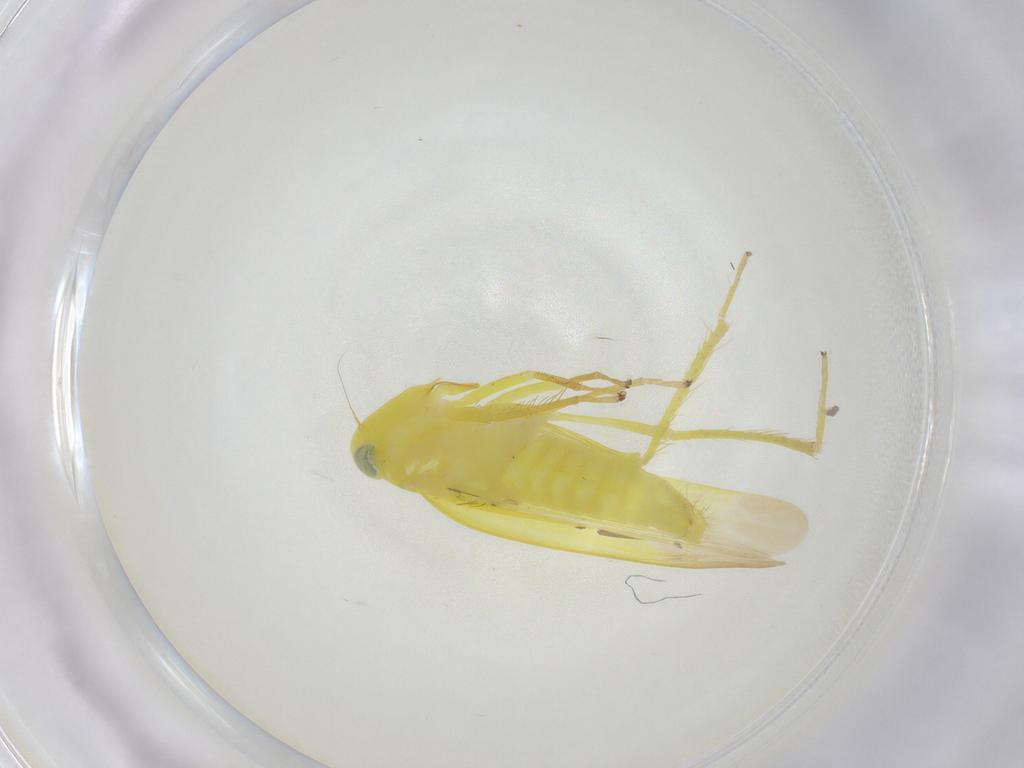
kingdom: Animalia
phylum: Arthropoda
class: Insecta
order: Hemiptera
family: Cicadellidae
